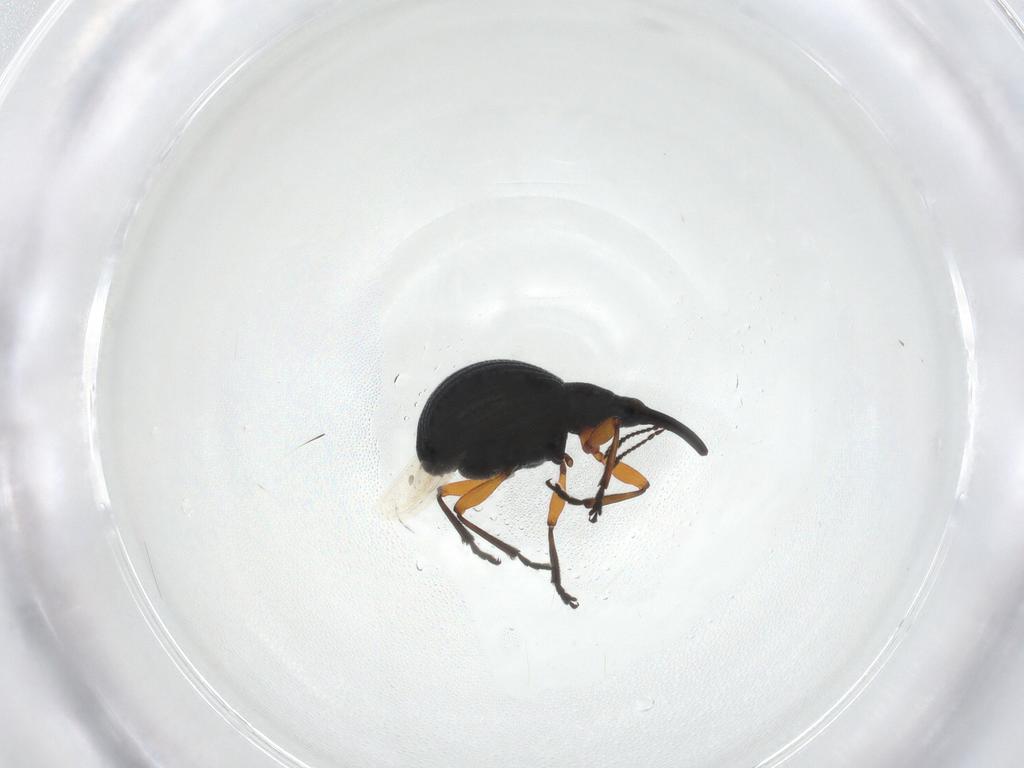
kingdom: Animalia
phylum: Arthropoda
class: Insecta
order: Coleoptera
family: Apionidae
